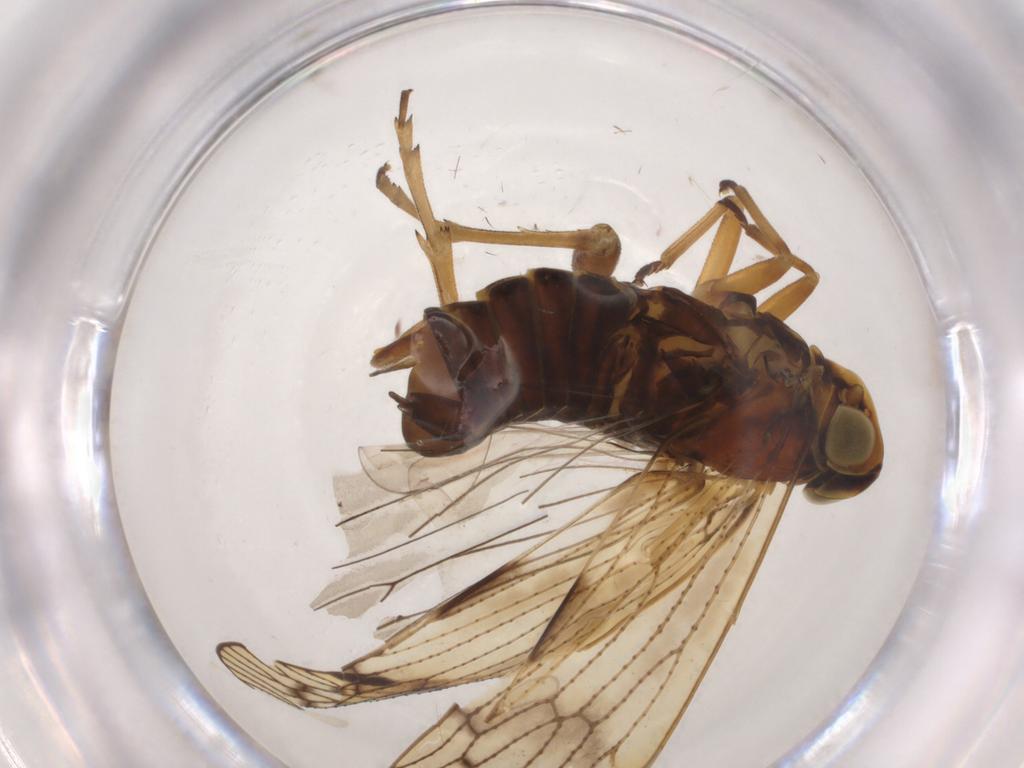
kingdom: Animalia
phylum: Arthropoda
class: Insecta
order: Hemiptera
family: Cixiidae
